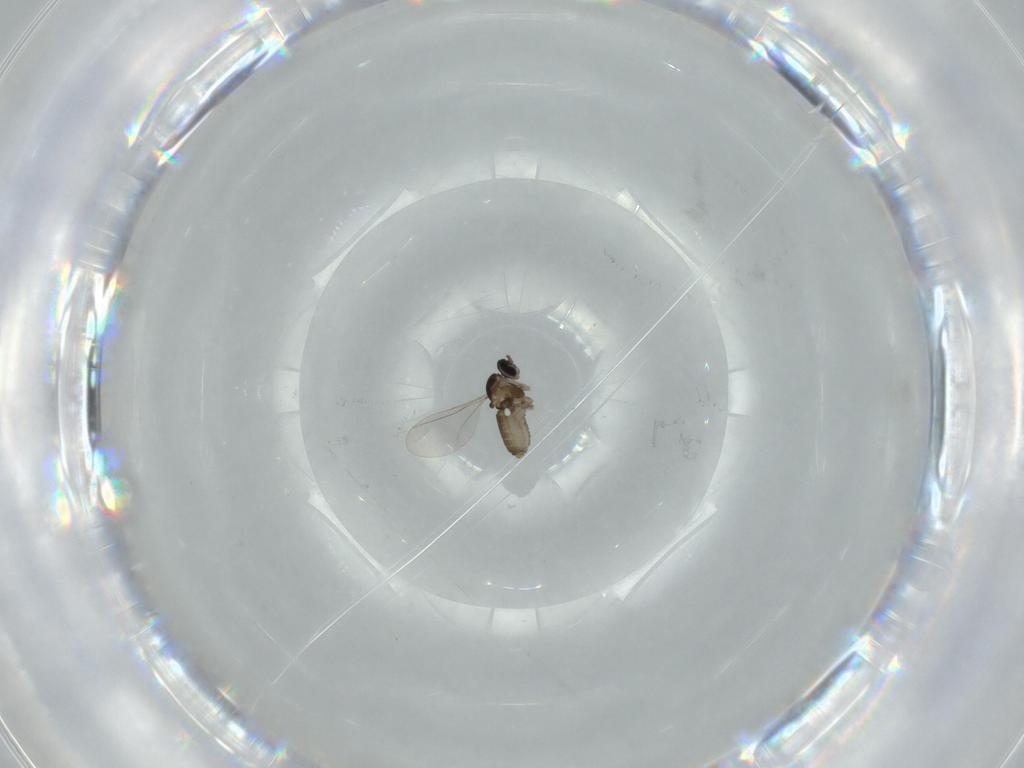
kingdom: Animalia
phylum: Arthropoda
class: Insecta
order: Diptera
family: Cecidomyiidae
